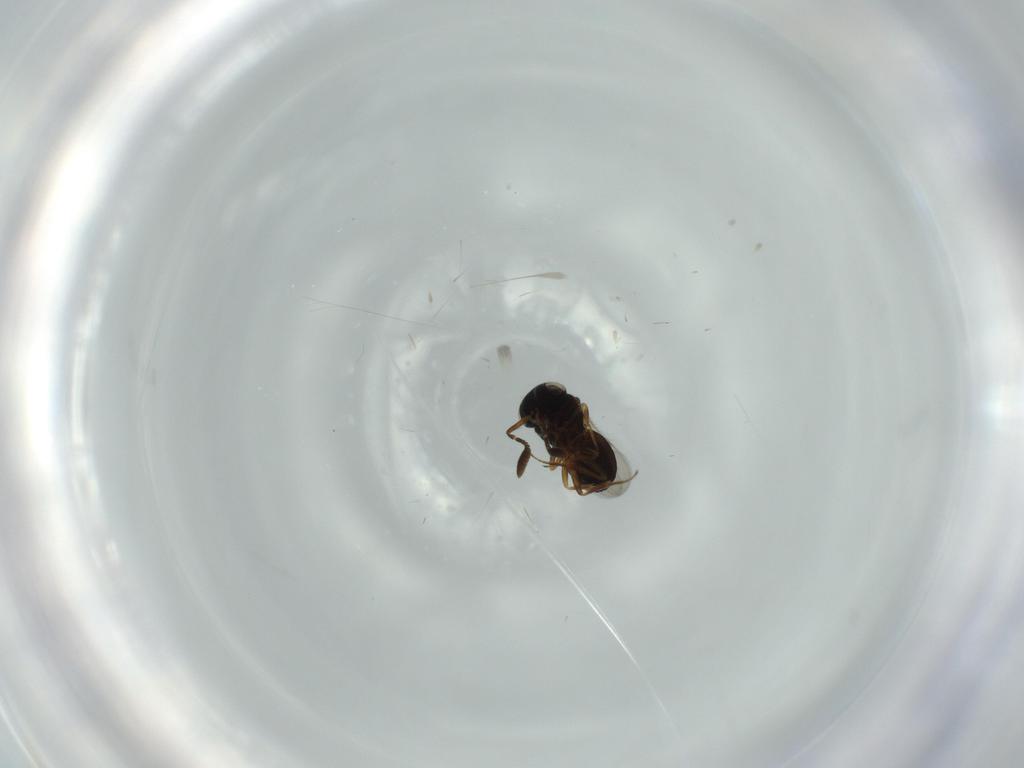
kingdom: Animalia
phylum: Arthropoda
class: Insecta
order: Hymenoptera
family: Scelionidae
